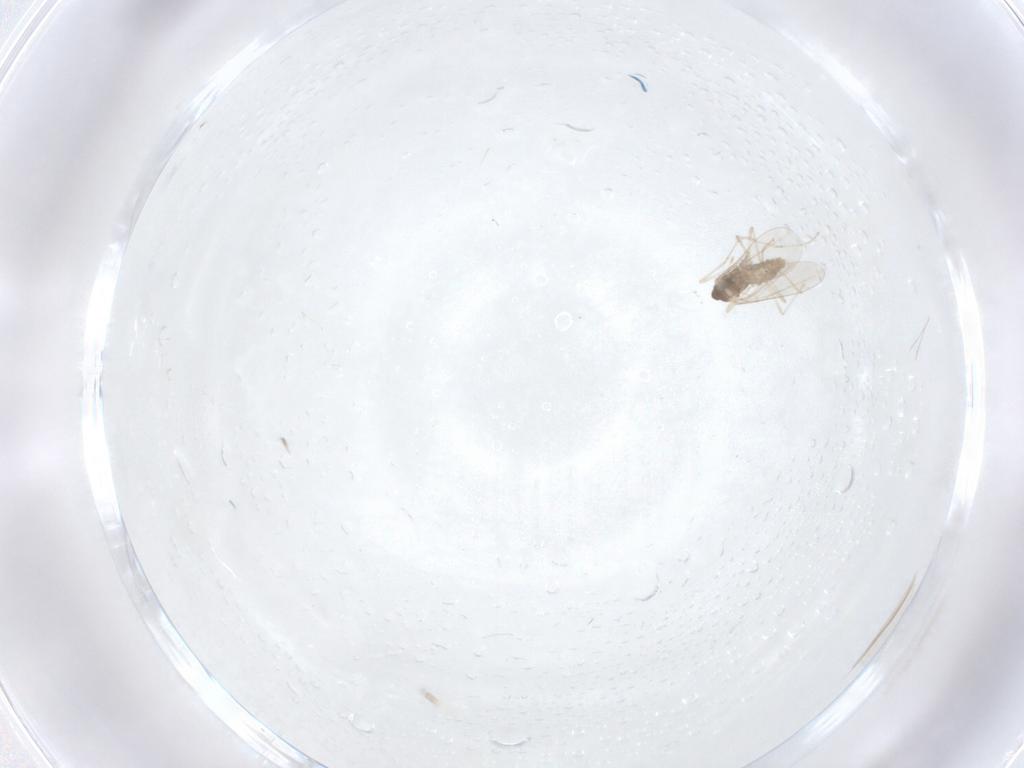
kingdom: Animalia
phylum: Arthropoda
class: Insecta
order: Diptera
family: Sciaridae
